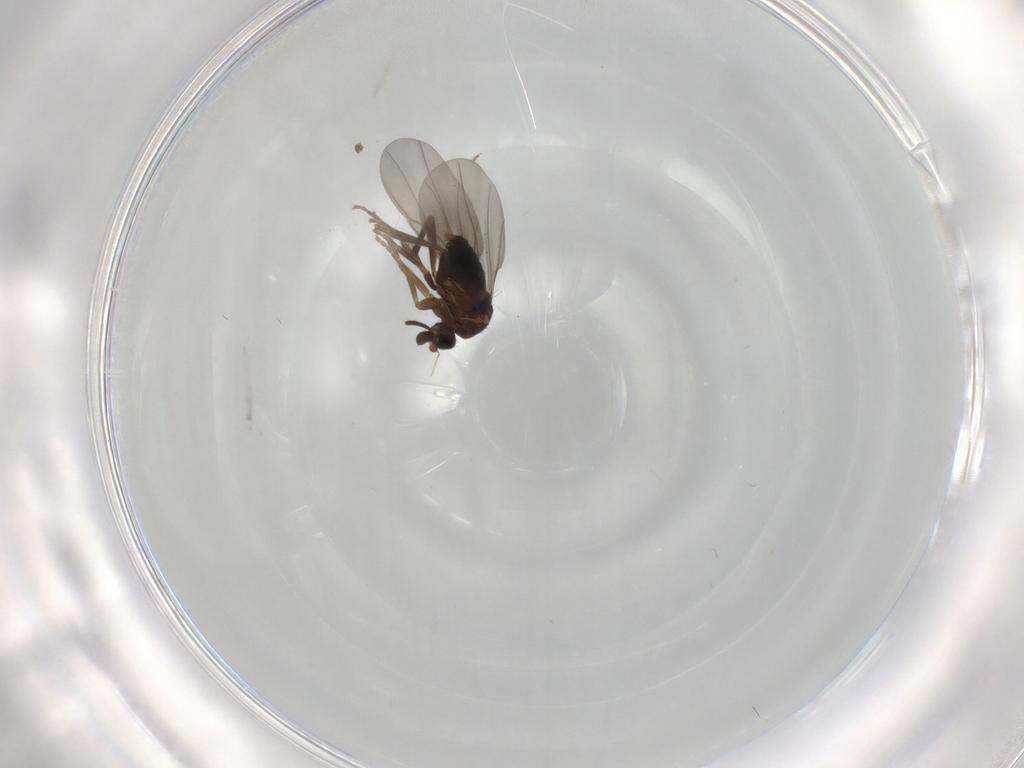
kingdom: Animalia
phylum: Arthropoda
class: Insecta
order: Diptera
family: Phoridae
